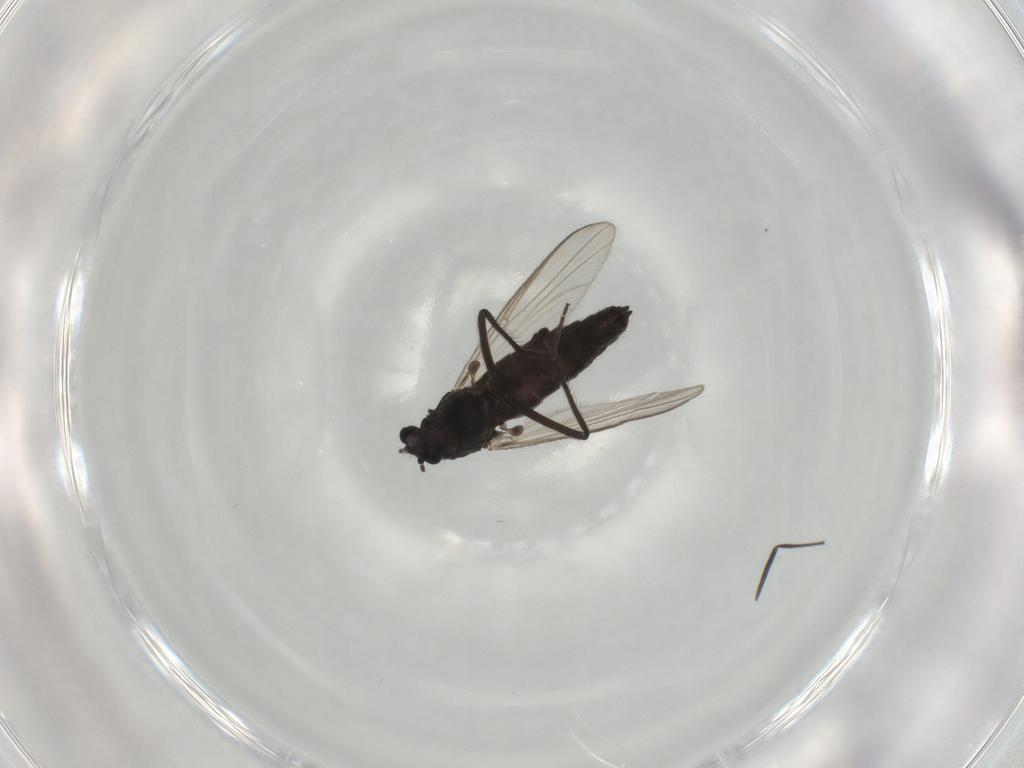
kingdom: Animalia
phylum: Arthropoda
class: Insecta
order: Diptera
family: Chironomidae
